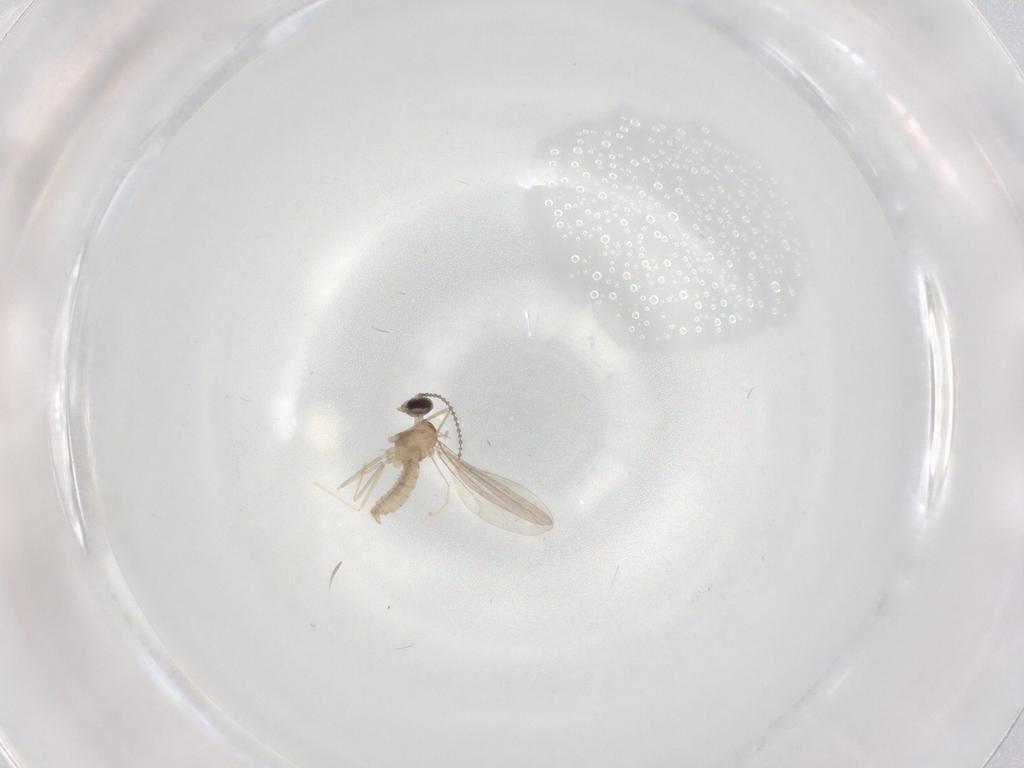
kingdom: Animalia
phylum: Arthropoda
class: Insecta
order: Diptera
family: Cecidomyiidae
